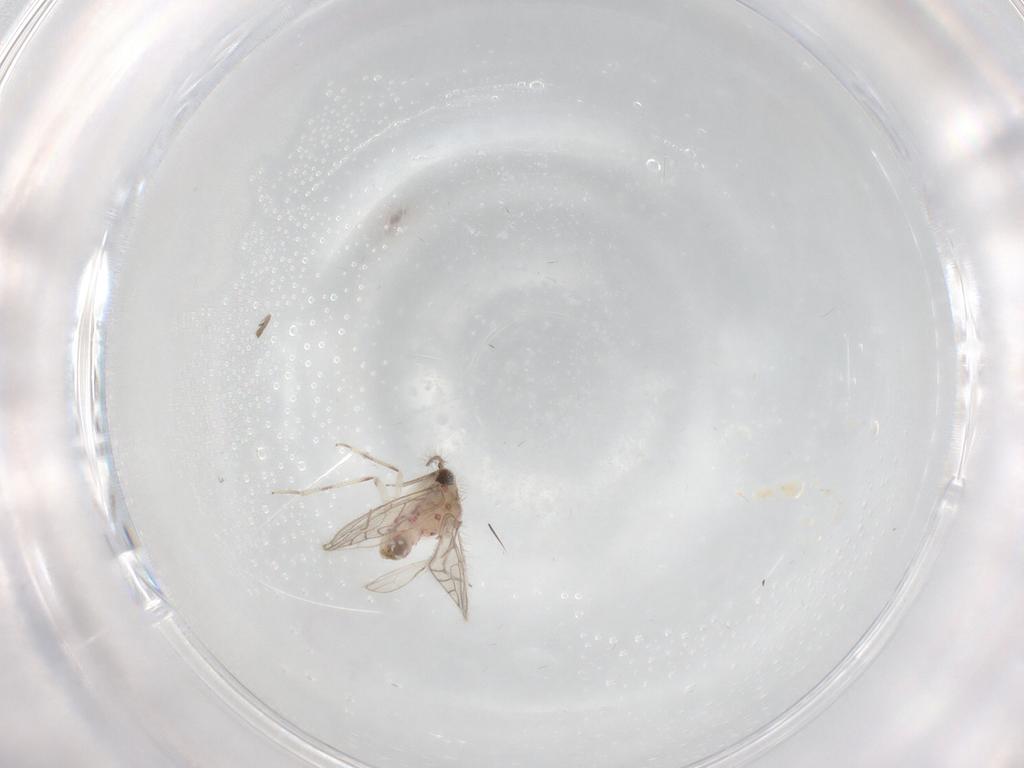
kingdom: Animalia
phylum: Arthropoda
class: Insecta
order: Psocodea
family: Caeciliusidae
